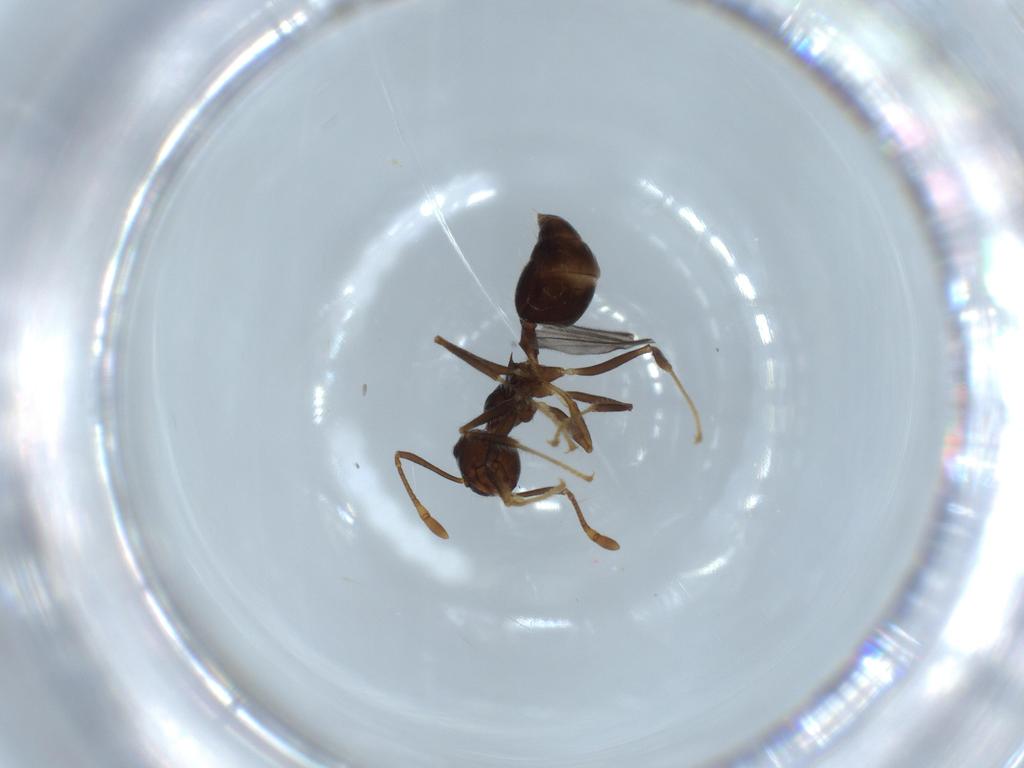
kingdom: Animalia
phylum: Arthropoda
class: Insecta
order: Hymenoptera
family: Formicidae
